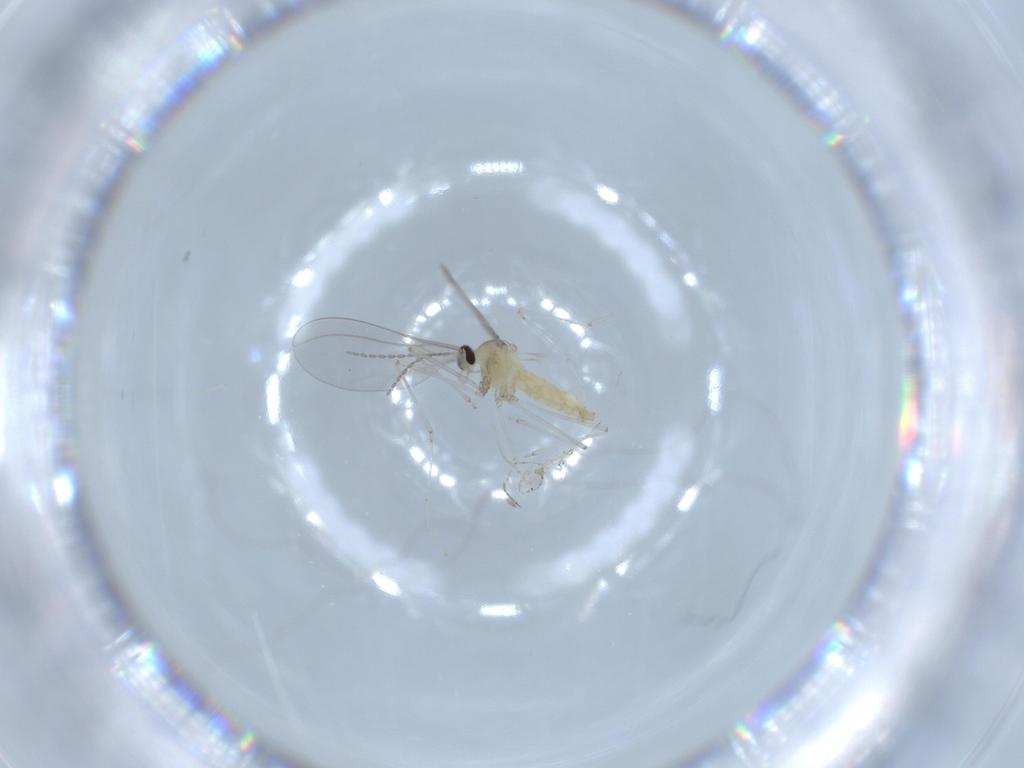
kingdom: Animalia
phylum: Arthropoda
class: Insecta
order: Diptera
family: Cecidomyiidae
